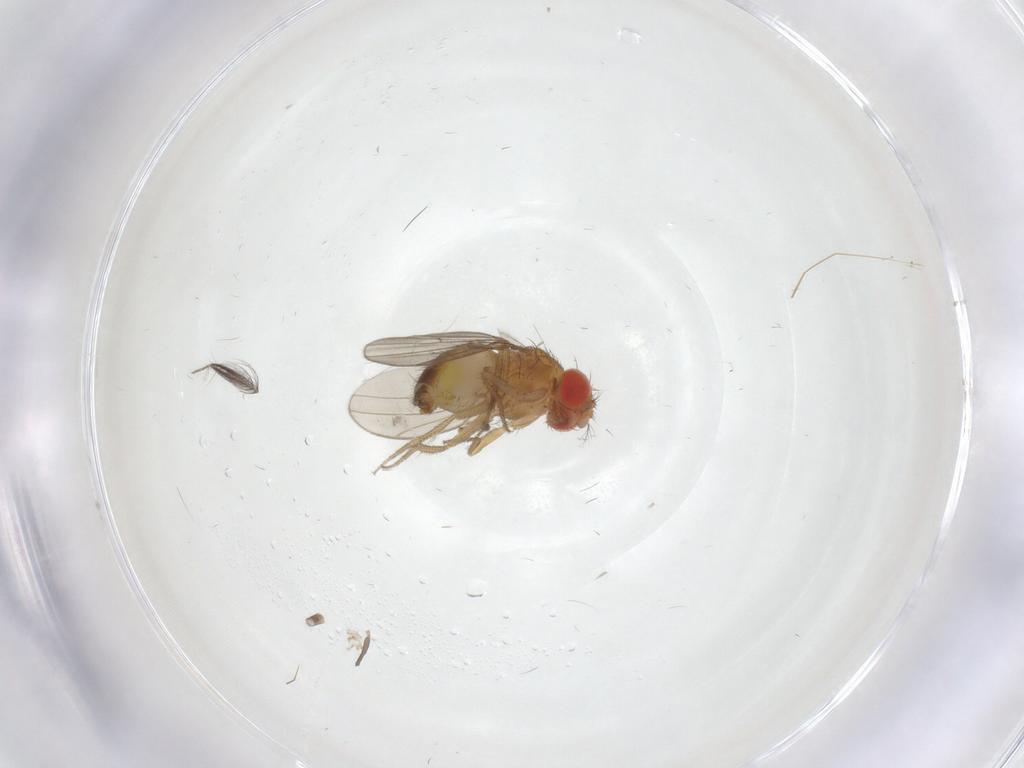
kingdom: Animalia
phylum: Arthropoda
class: Insecta
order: Diptera
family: Drosophilidae
